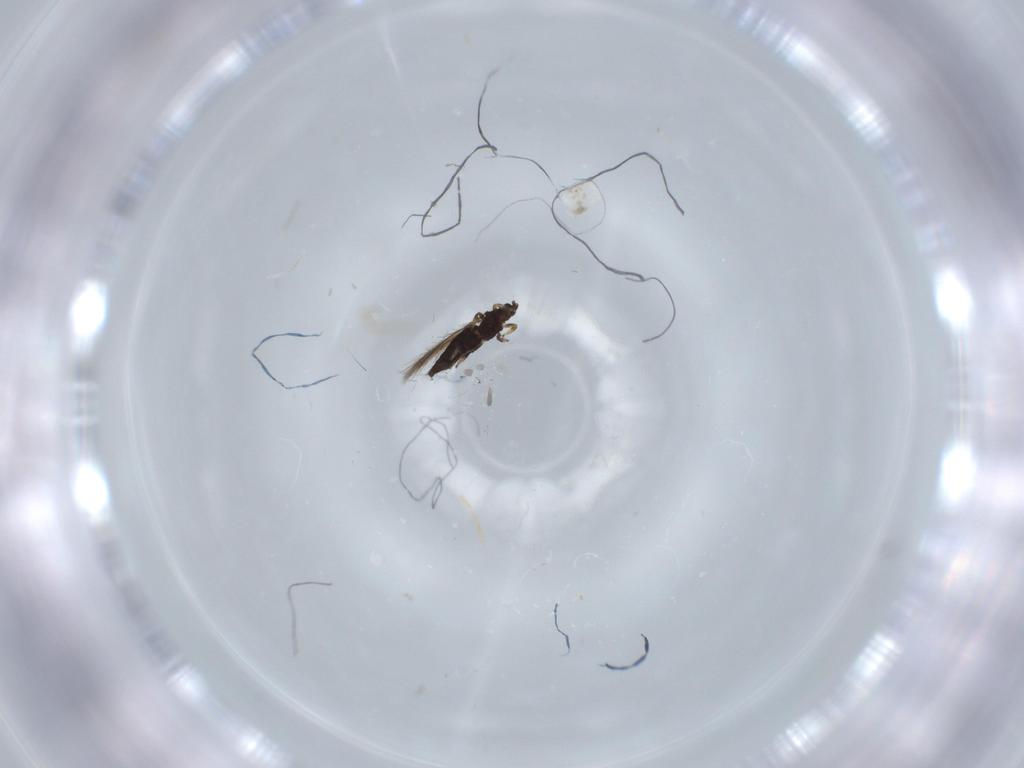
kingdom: Animalia
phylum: Arthropoda
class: Insecta
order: Thysanoptera
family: Thripidae
